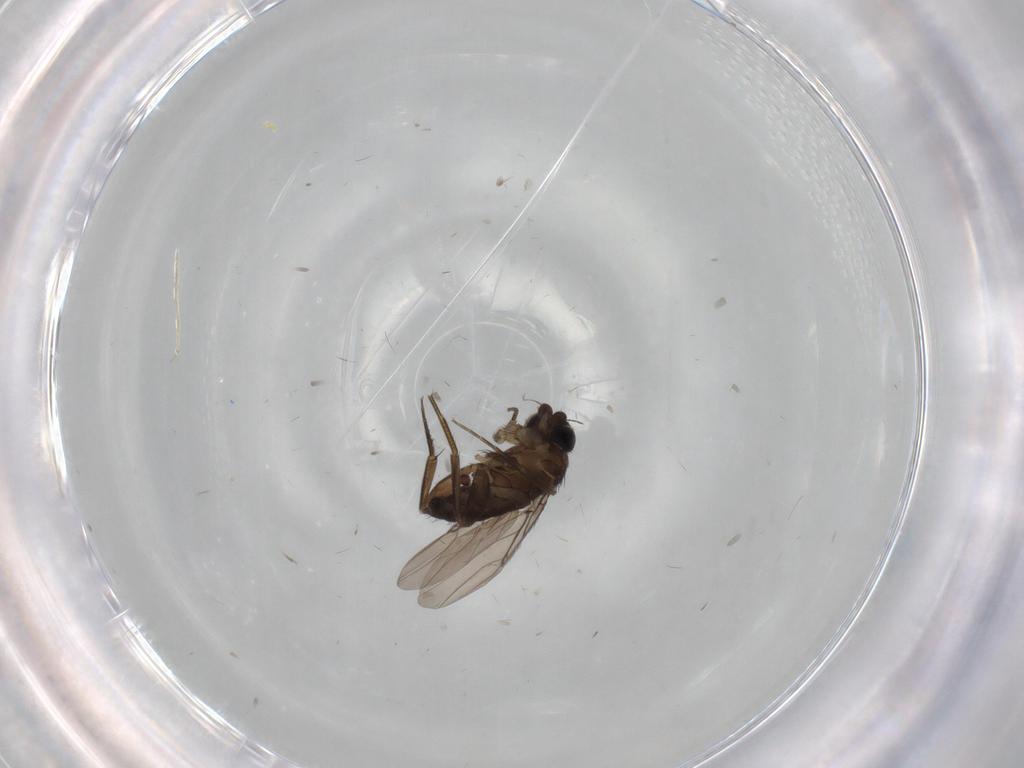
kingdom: Animalia
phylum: Arthropoda
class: Insecta
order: Diptera
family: Phoridae
